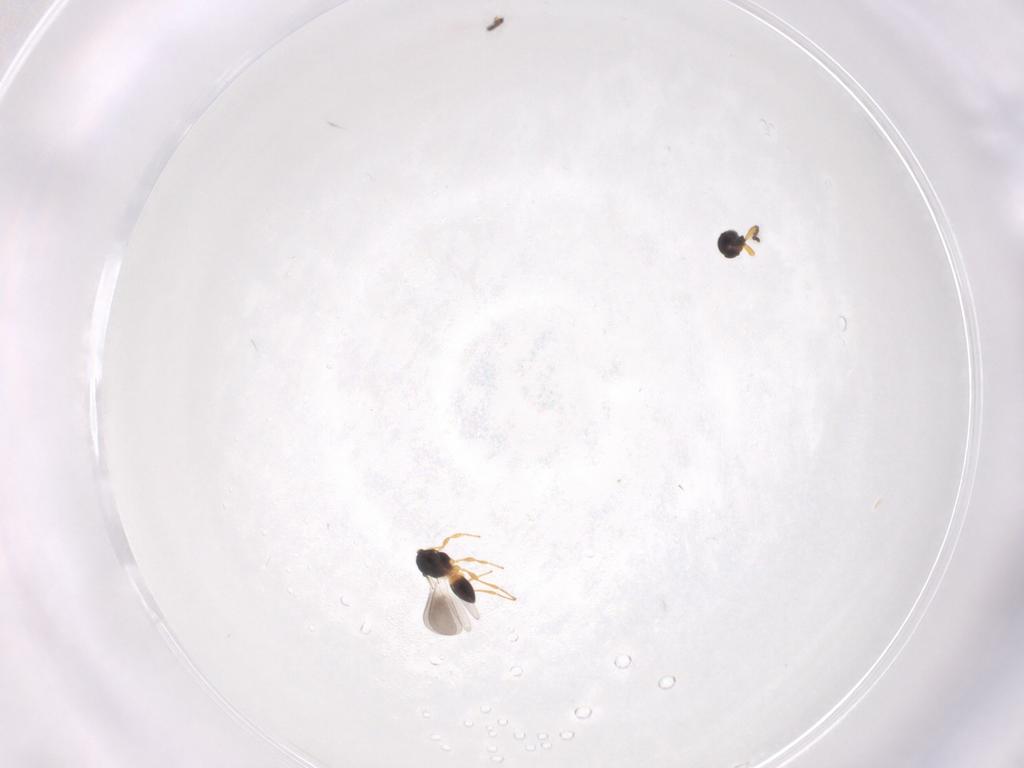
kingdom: Animalia
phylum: Arthropoda
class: Insecta
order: Hymenoptera
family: Platygastridae
